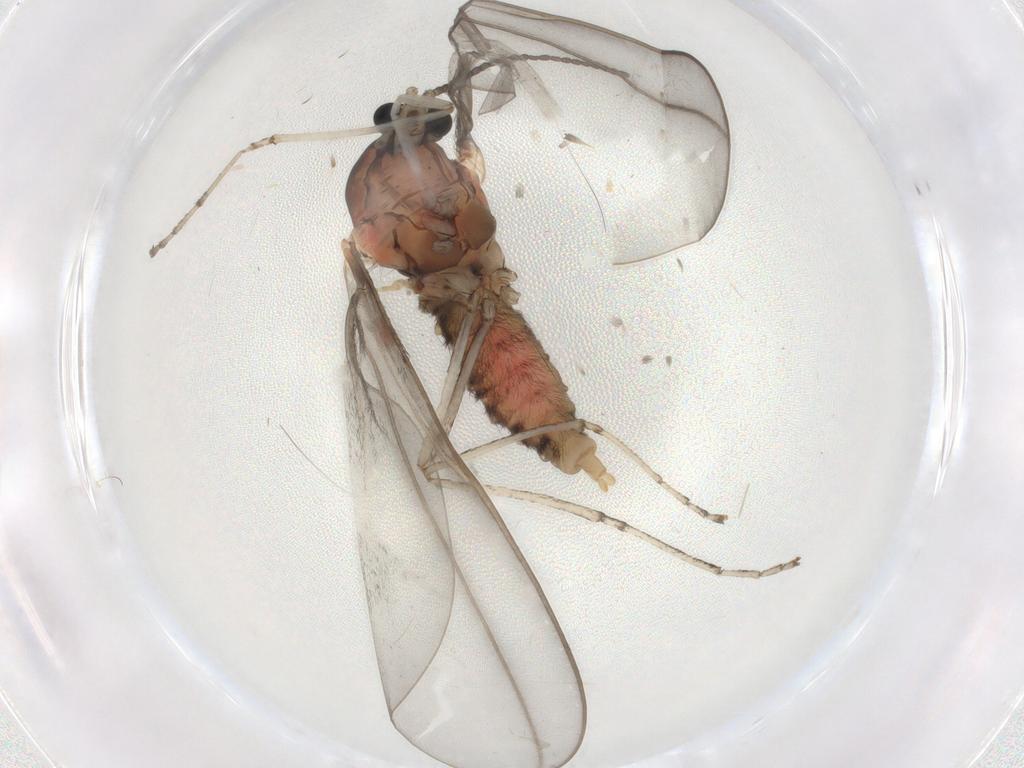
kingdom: Animalia
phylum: Arthropoda
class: Insecta
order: Diptera
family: Cecidomyiidae
